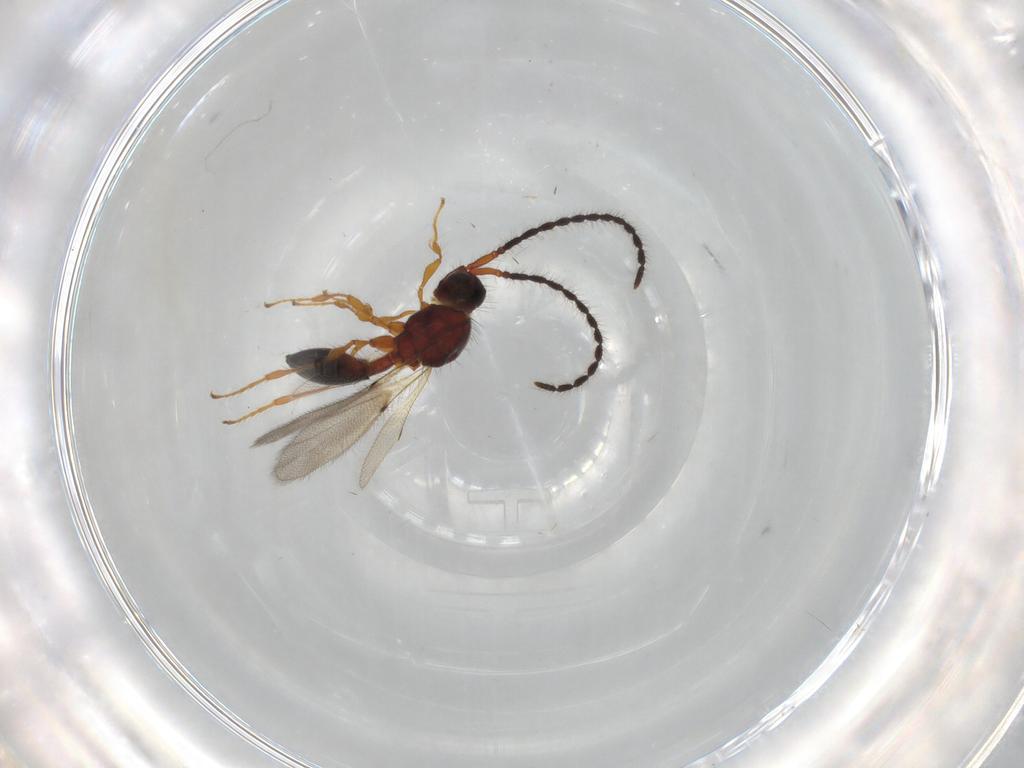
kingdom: Animalia
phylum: Arthropoda
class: Insecta
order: Hymenoptera
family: Diapriidae
